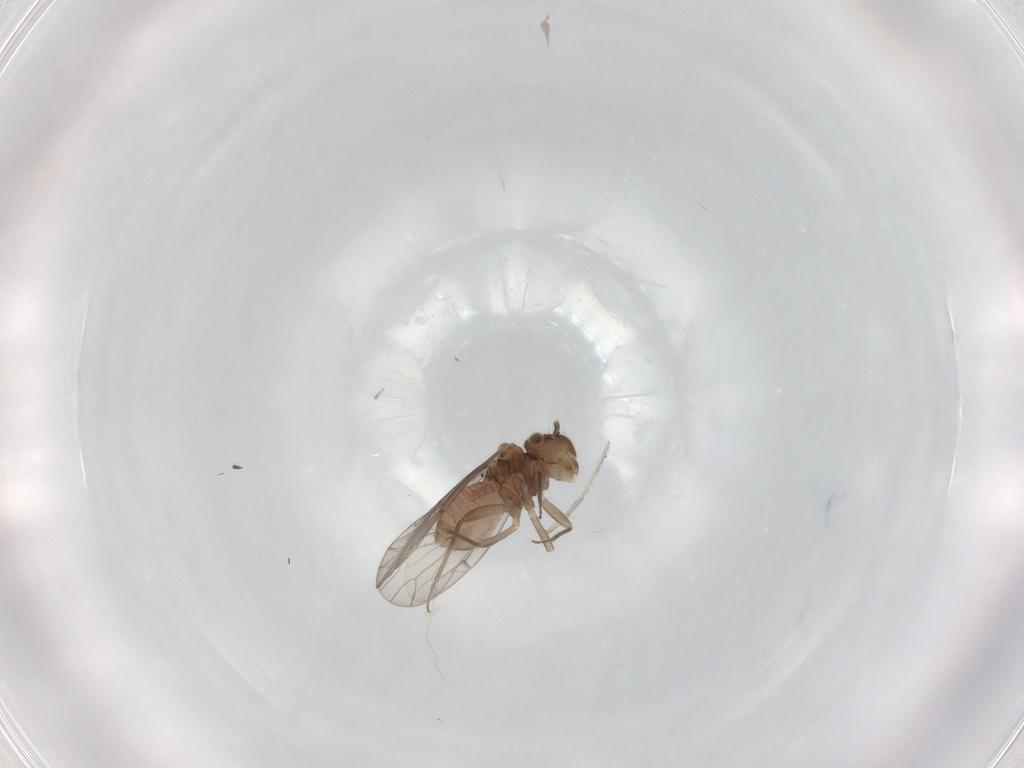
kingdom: Animalia
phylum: Arthropoda
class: Insecta
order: Psocodea
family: Ectopsocidae
